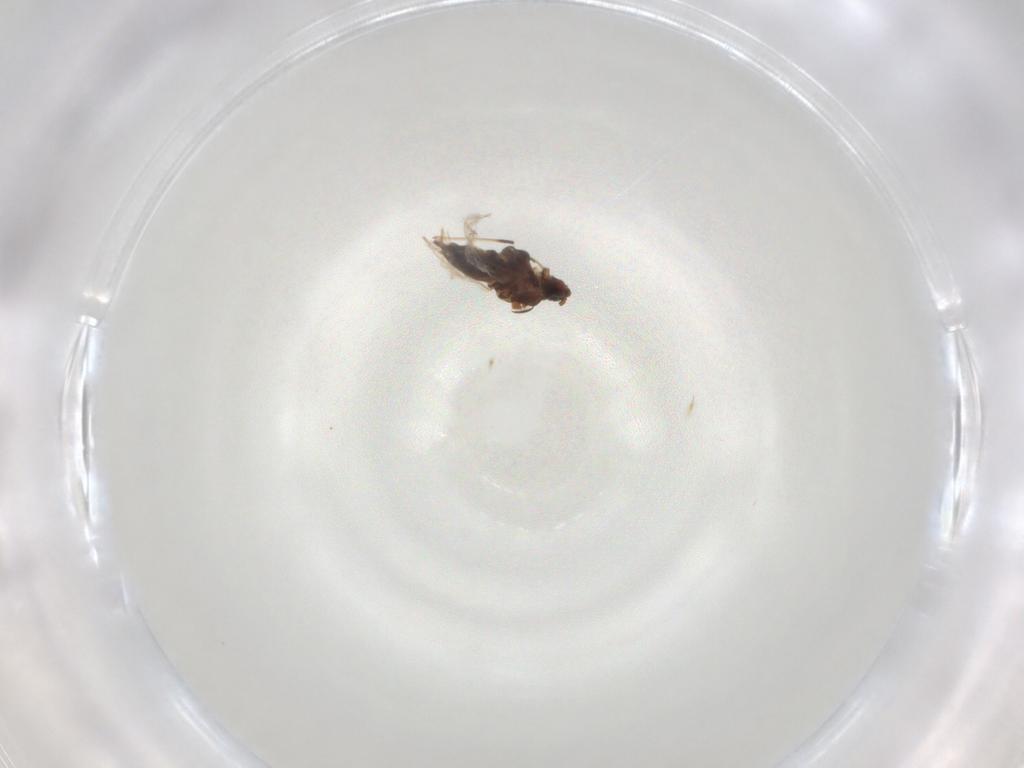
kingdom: Animalia
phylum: Arthropoda
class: Insecta
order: Hemiptera
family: Aphididae
